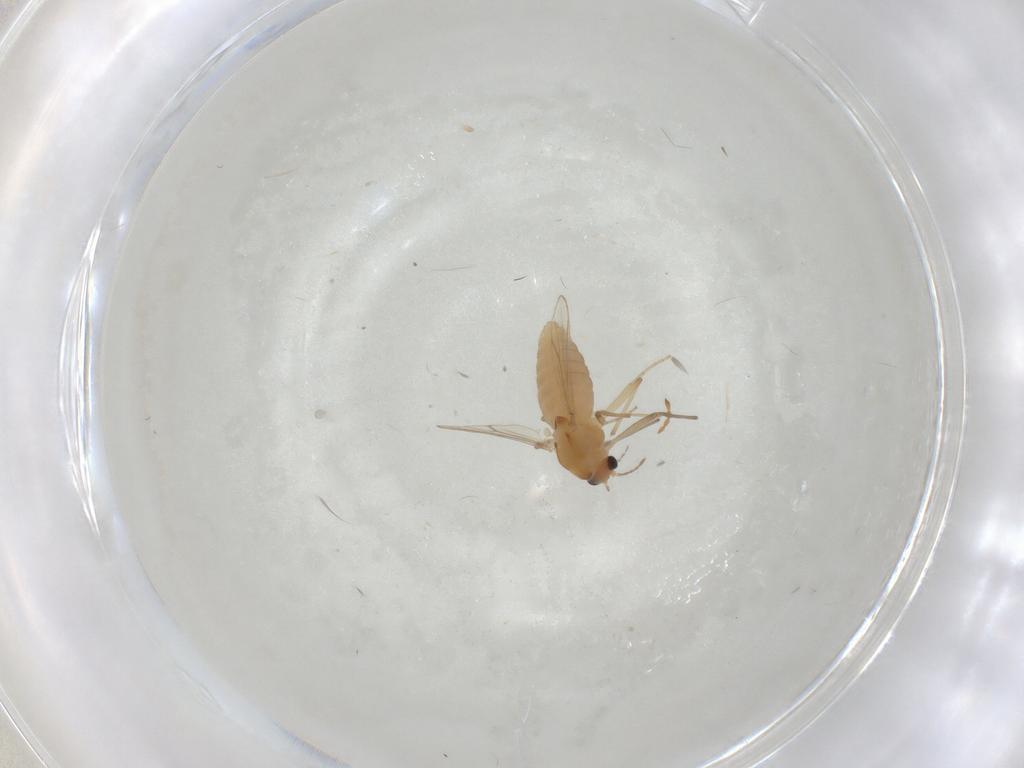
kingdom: Animalia
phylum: Arthropoda
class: Insecta
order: Diptera
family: Chironomidae
